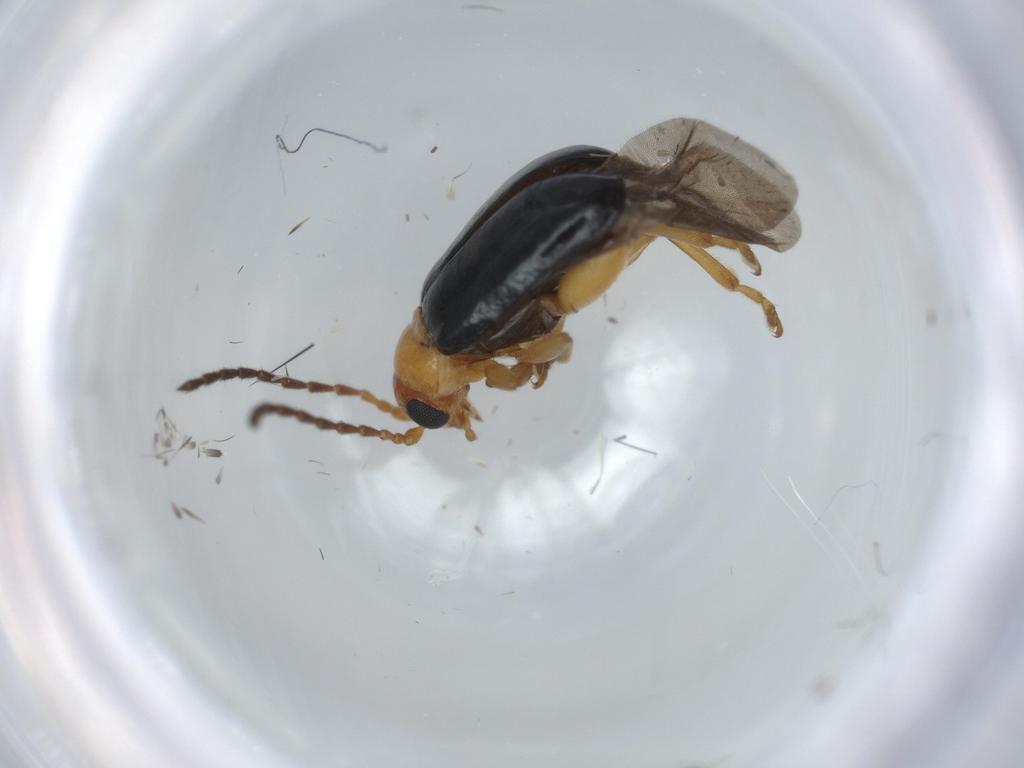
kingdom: Animalia
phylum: Arthropoda
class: Insecta
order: Coleoptera
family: Chrysomelidae
